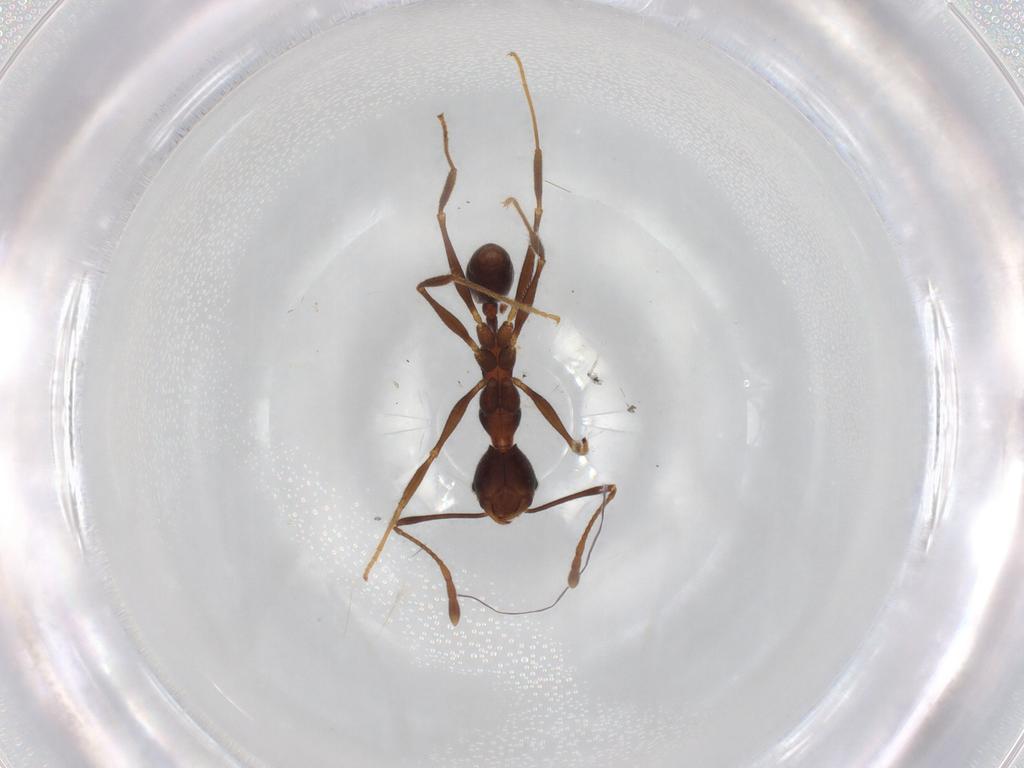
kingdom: Animalia
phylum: Arthropoda
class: Insecta
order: Hymenoptera
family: Formicidae
